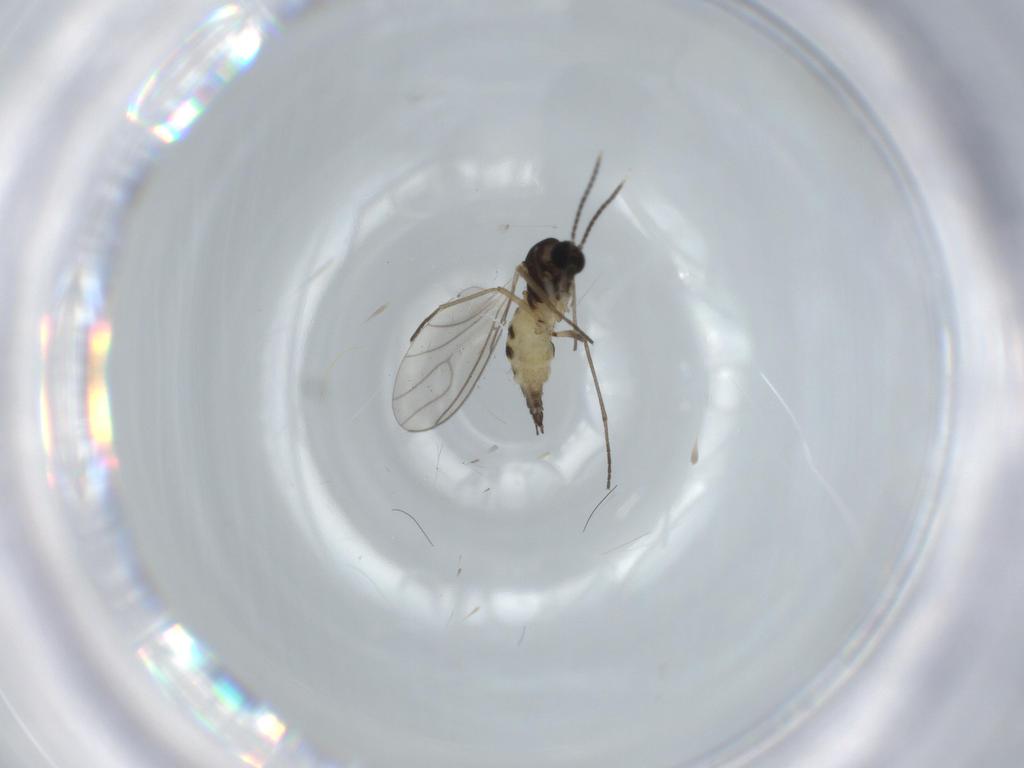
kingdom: Animalia
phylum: Arthropoda
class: Insecta
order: Diptera
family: Sciaridae
